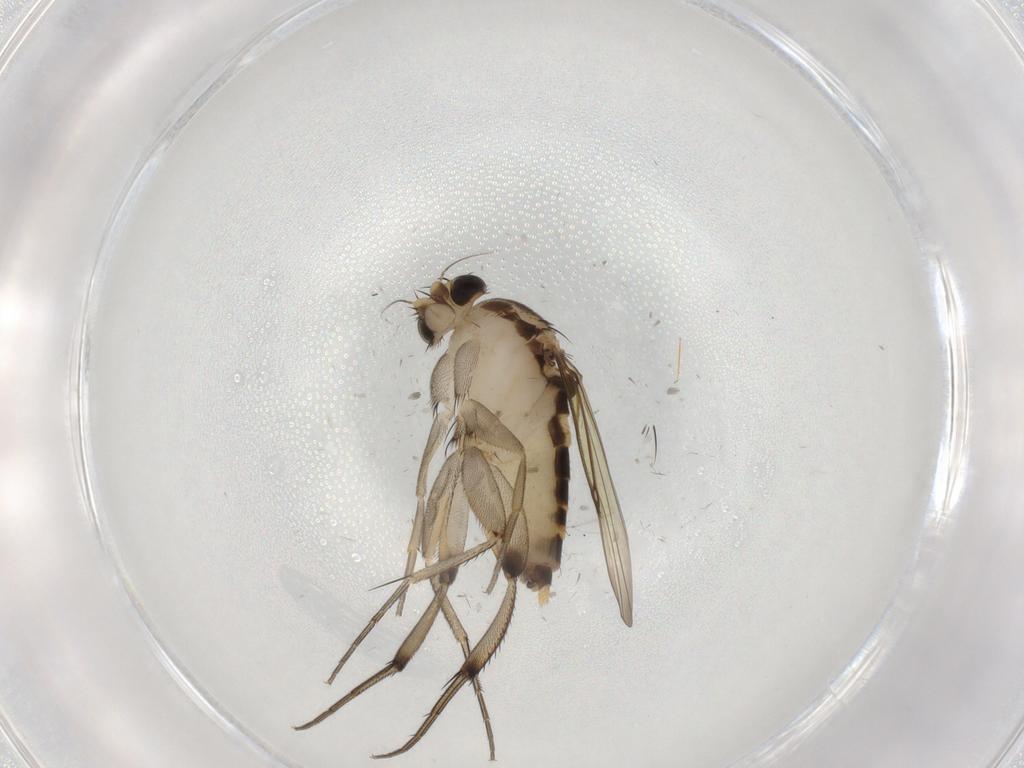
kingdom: Animalia
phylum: Arthropoda
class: Insecta
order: Diptera
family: Phoridae
